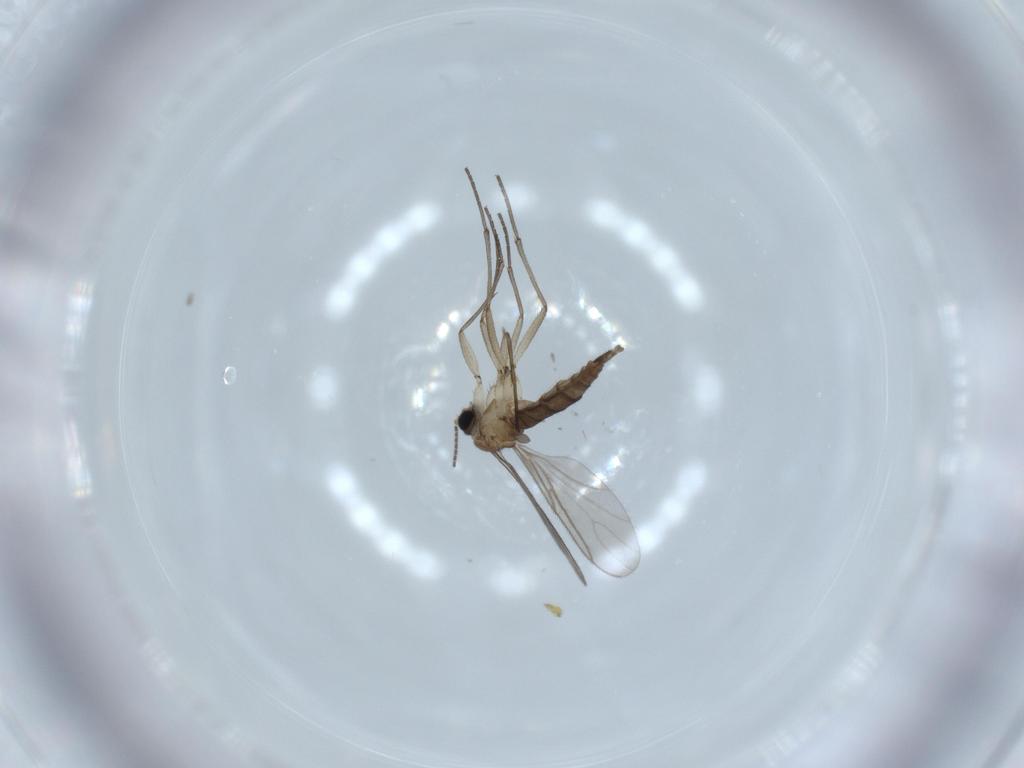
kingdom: Animalia
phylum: Arthropoda
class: Insecta
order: Diptera
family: Sciaridae
